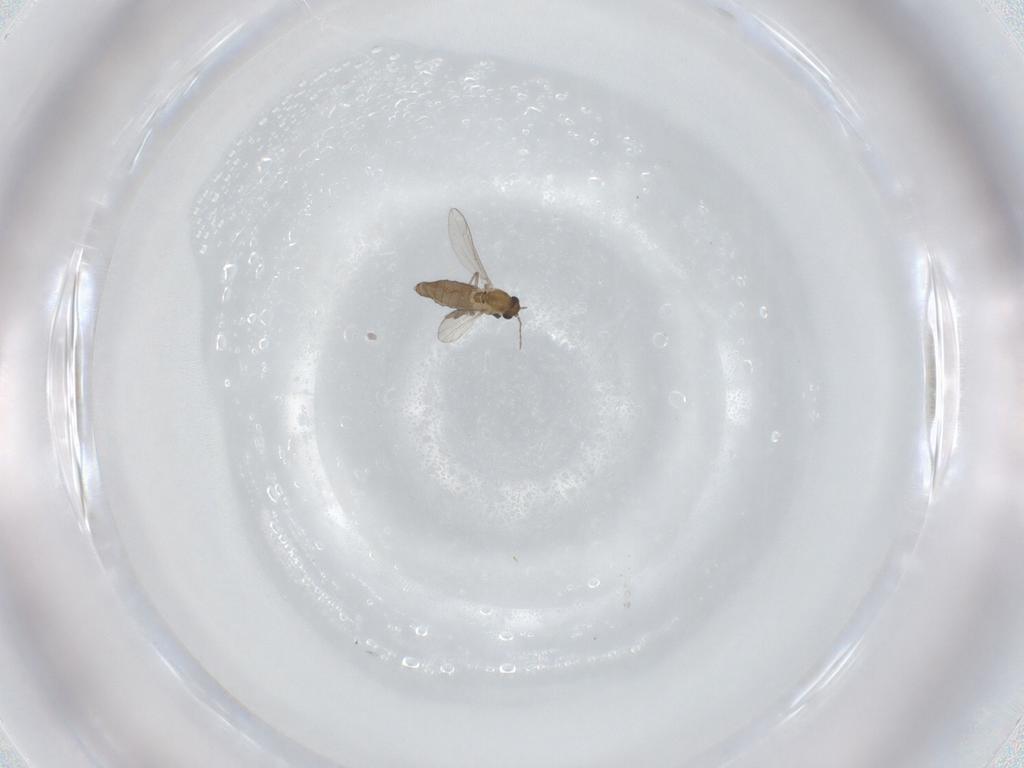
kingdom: Animalia
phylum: Arthropoda
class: Insecta
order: Diptera
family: Chironomidae
